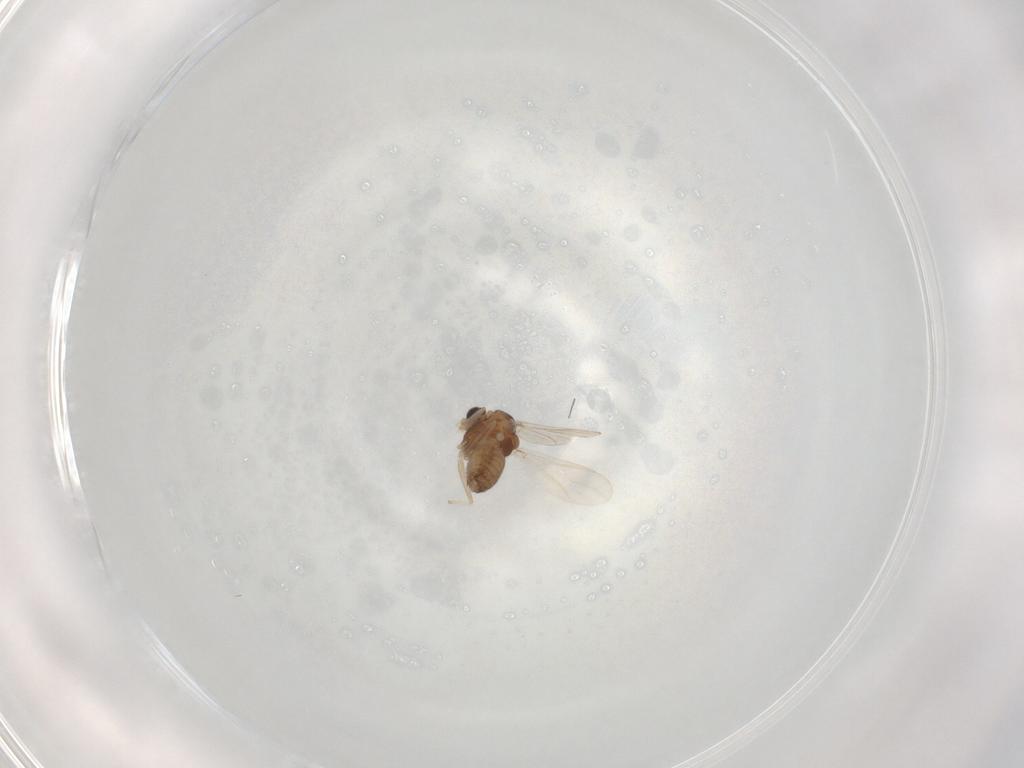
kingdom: Animalia
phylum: Arthropoda
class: Insecta
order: Diptera
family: Chironomidae
